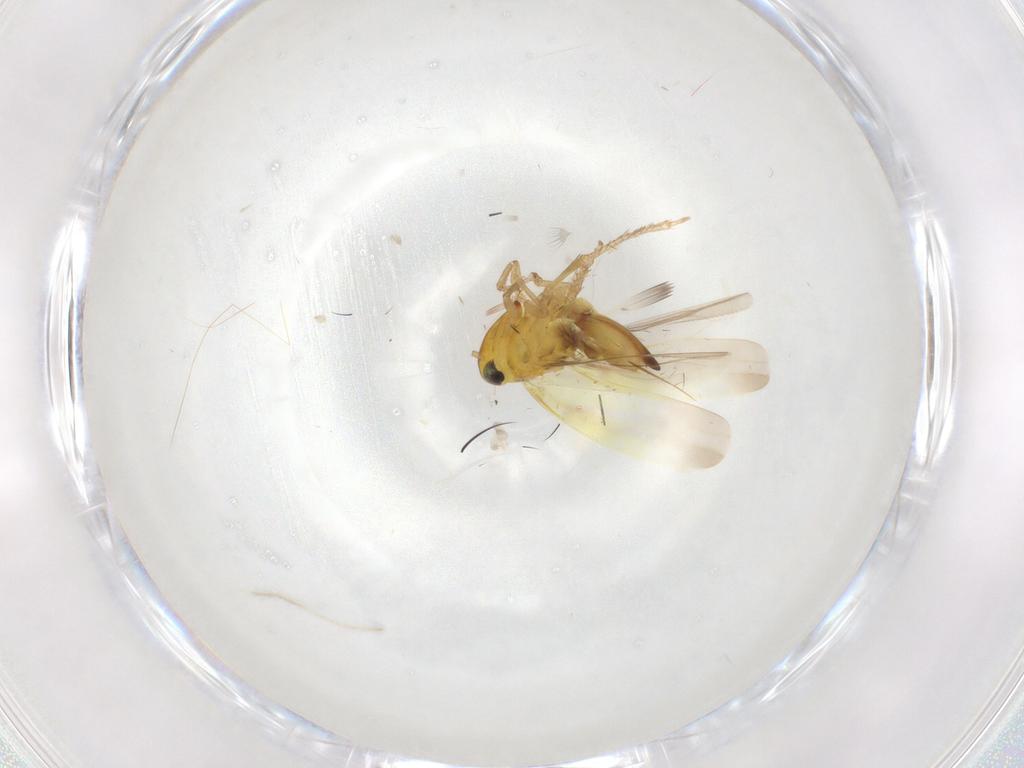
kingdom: Animalia
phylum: Arthropoda
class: Insecta
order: Hemiptera
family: Cicadellidae
